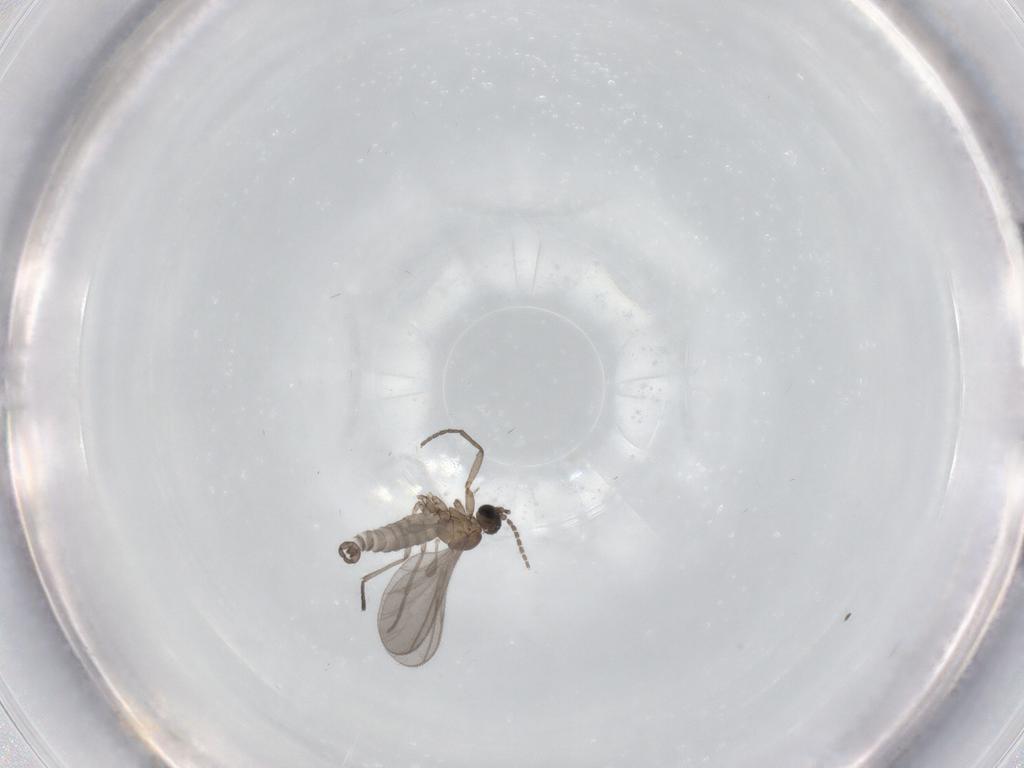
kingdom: Animalia
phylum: Arthropoda
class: Insecta
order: Diptera
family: Sciaridae
